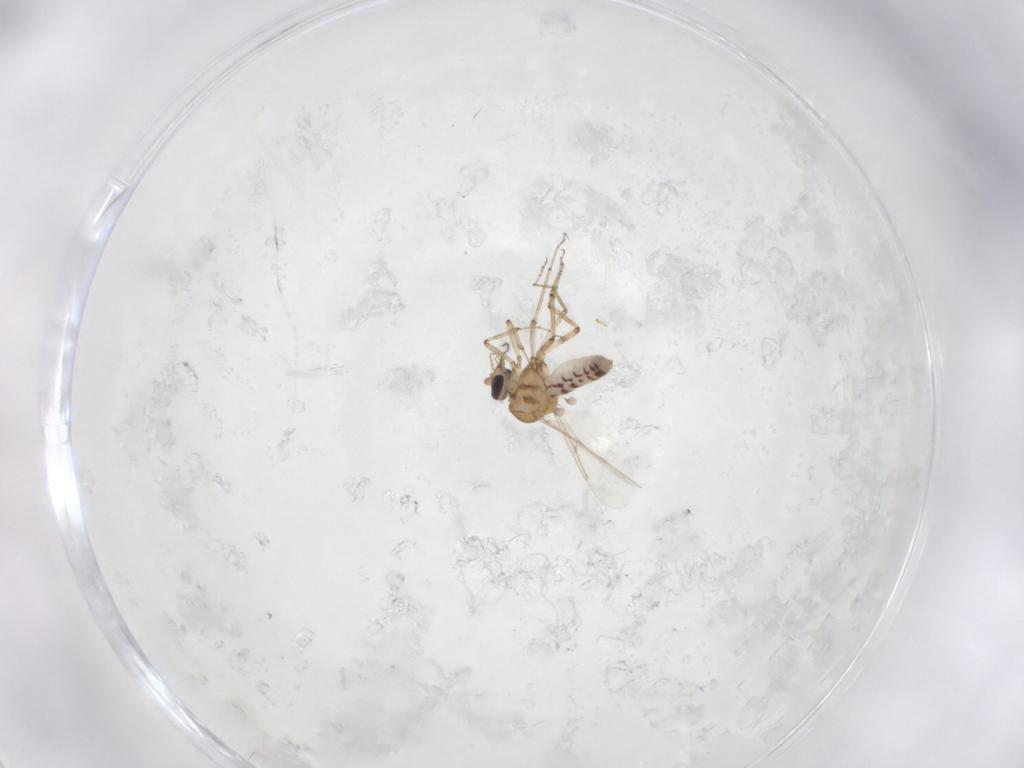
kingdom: Animalia
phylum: Arthropoda
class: Insecta
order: Diptera
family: Ceratopogonidae
